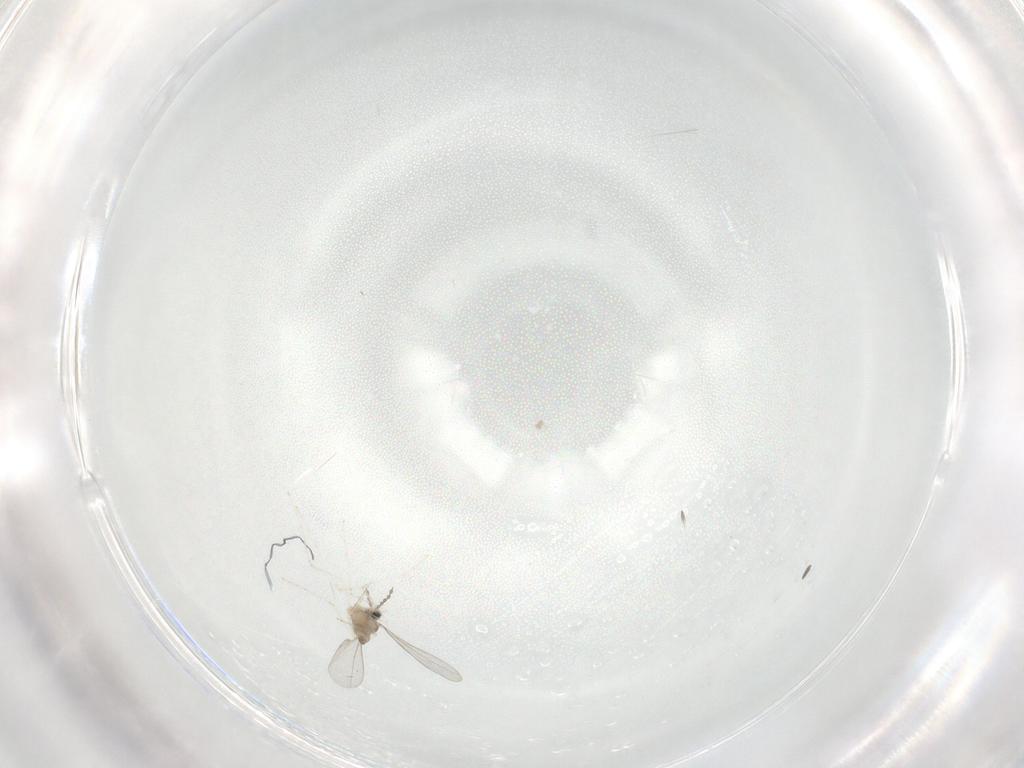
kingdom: Animalia
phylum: Arthropoda
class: Insecta
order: Diptera
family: Cecidomyiidae
